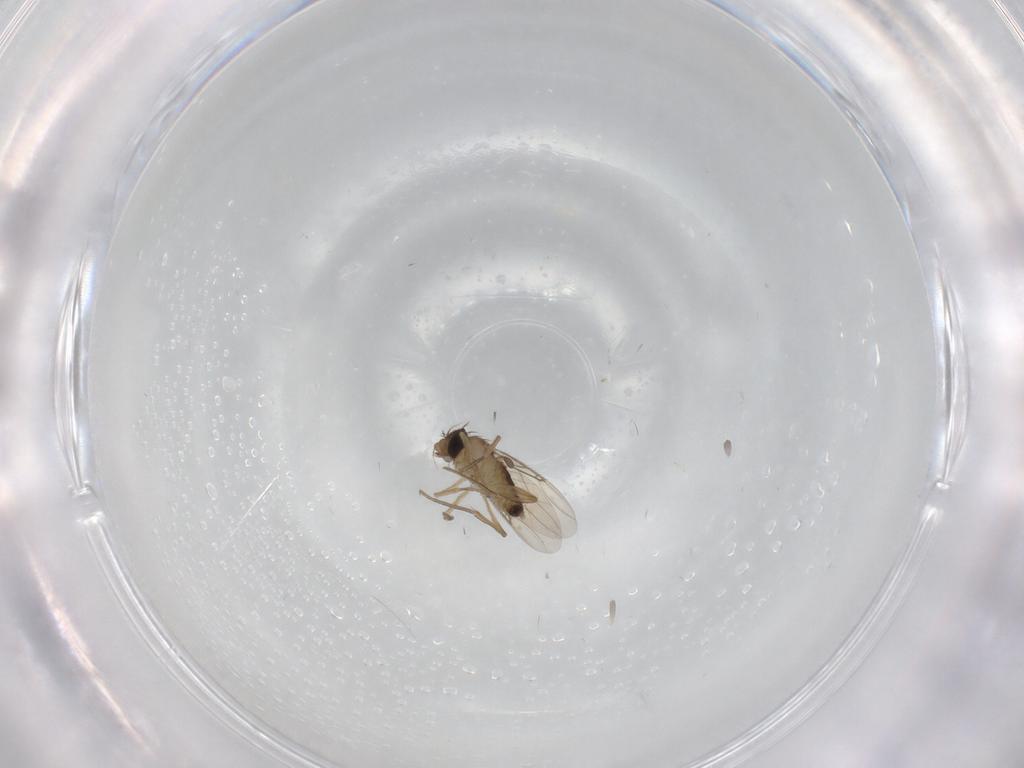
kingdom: Animalia
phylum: Arthropoda
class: Insecta
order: Diptera
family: Phoridae
